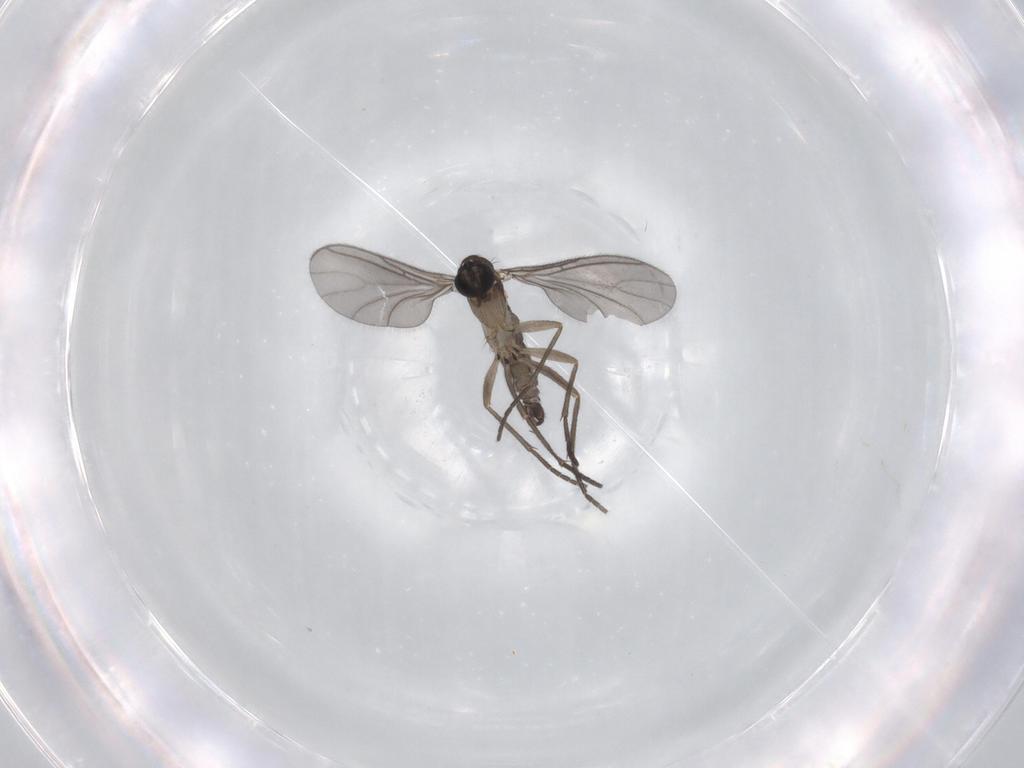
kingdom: Animalia
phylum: Arthropoda
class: Insecta
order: Diptera
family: Sciaridae
